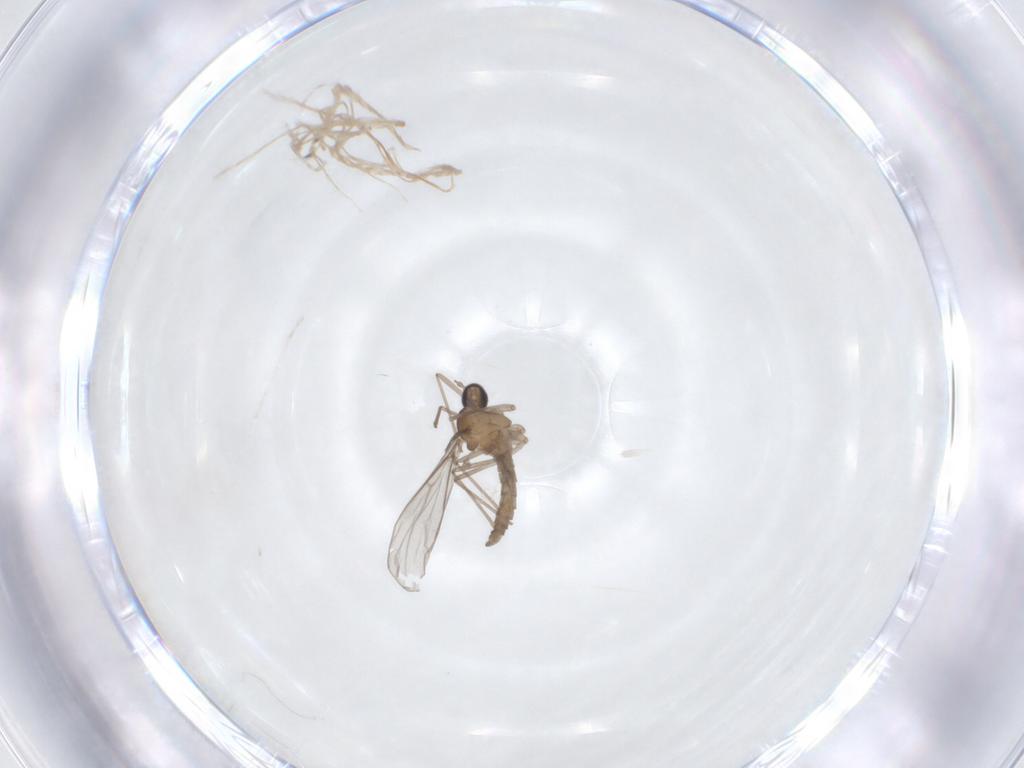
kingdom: Animalia
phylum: Arthropoda
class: Insecta
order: Diptera
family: Cecidomyiidae
